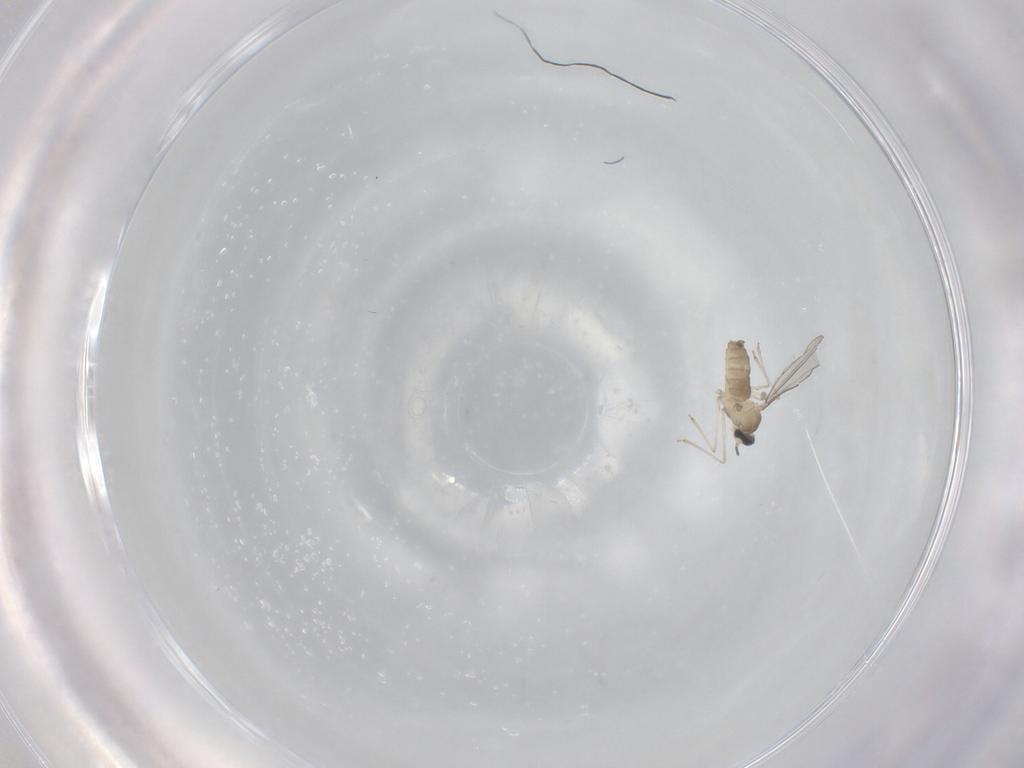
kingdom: Animalia
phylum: Arthropoda
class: Insecta
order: Diptera
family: Cecidomyiidae
